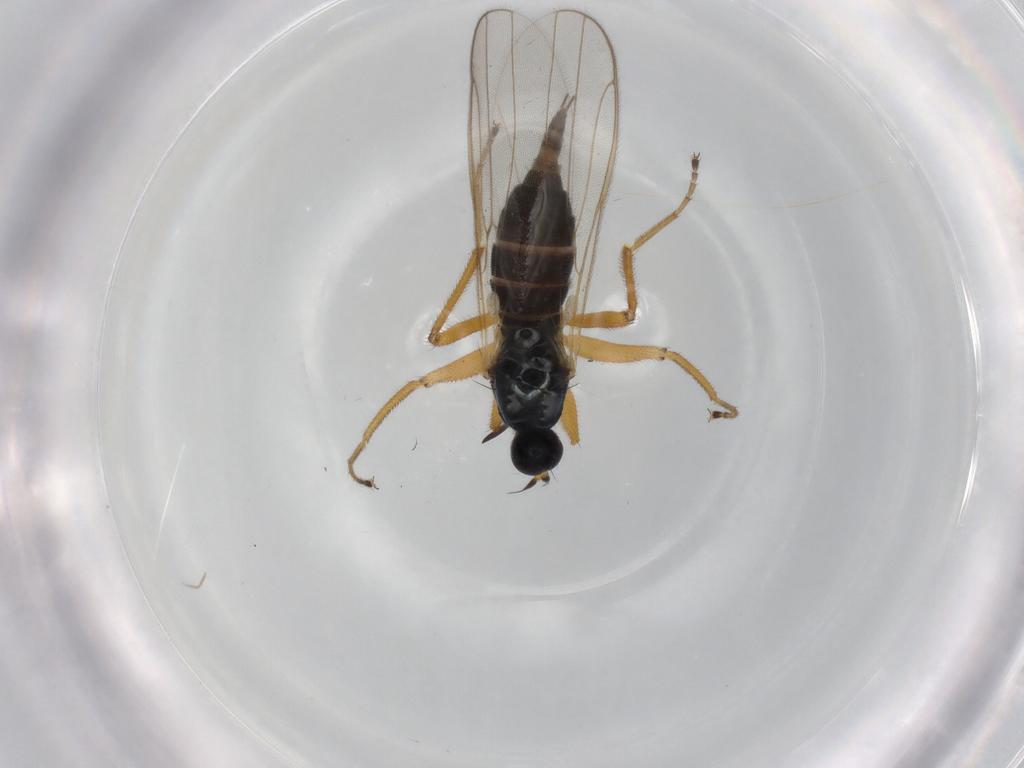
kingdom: Animalia
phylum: Arthropoda
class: Insecta
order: Diptera
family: Hybotidae
